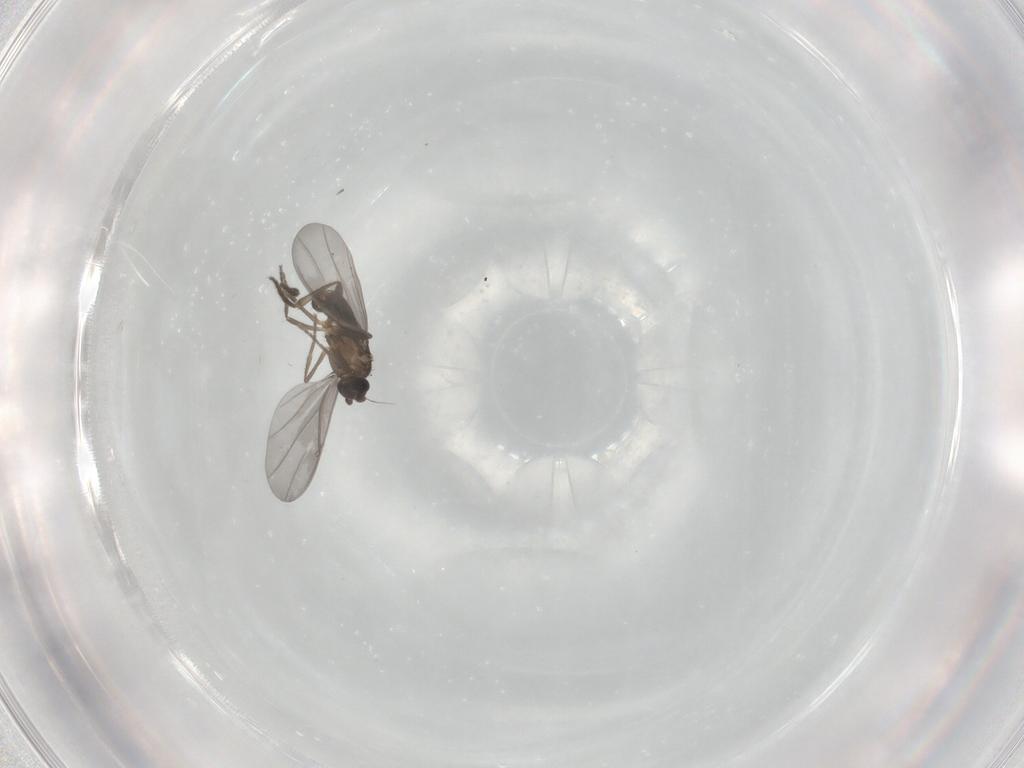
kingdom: Animalia
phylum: Arthropoda
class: Insecta
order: Diptera
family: Phoridae
